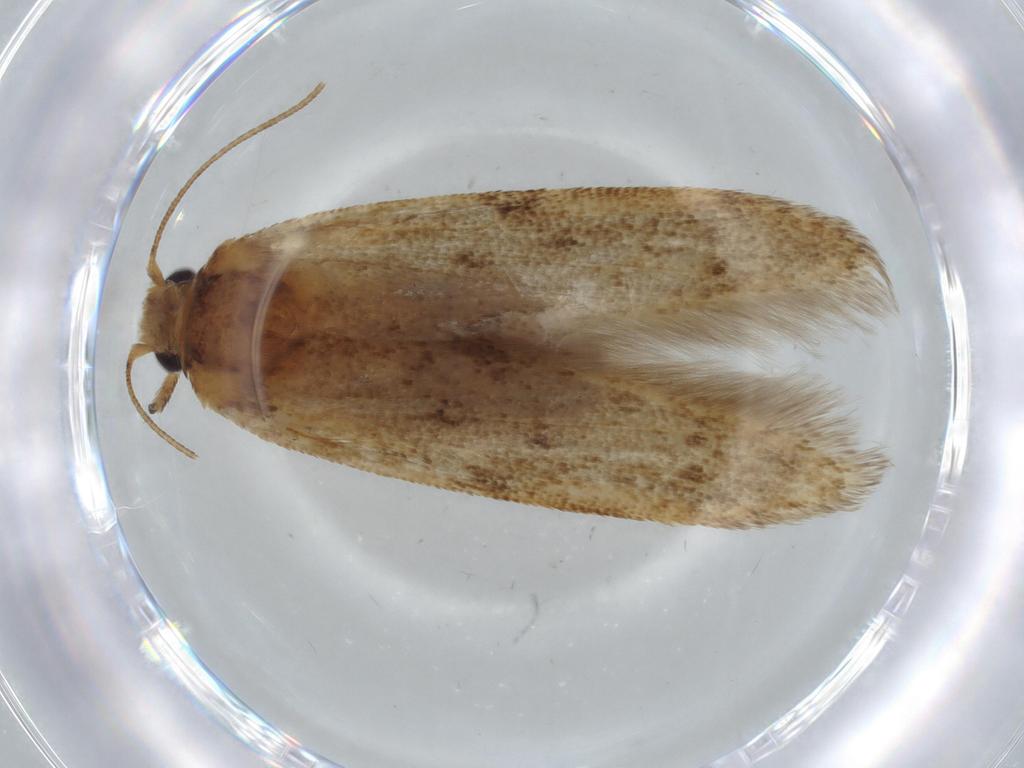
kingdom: Animalia
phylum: Arthropoda
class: Insecta
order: Lepidoptera
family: Blastobasidae
